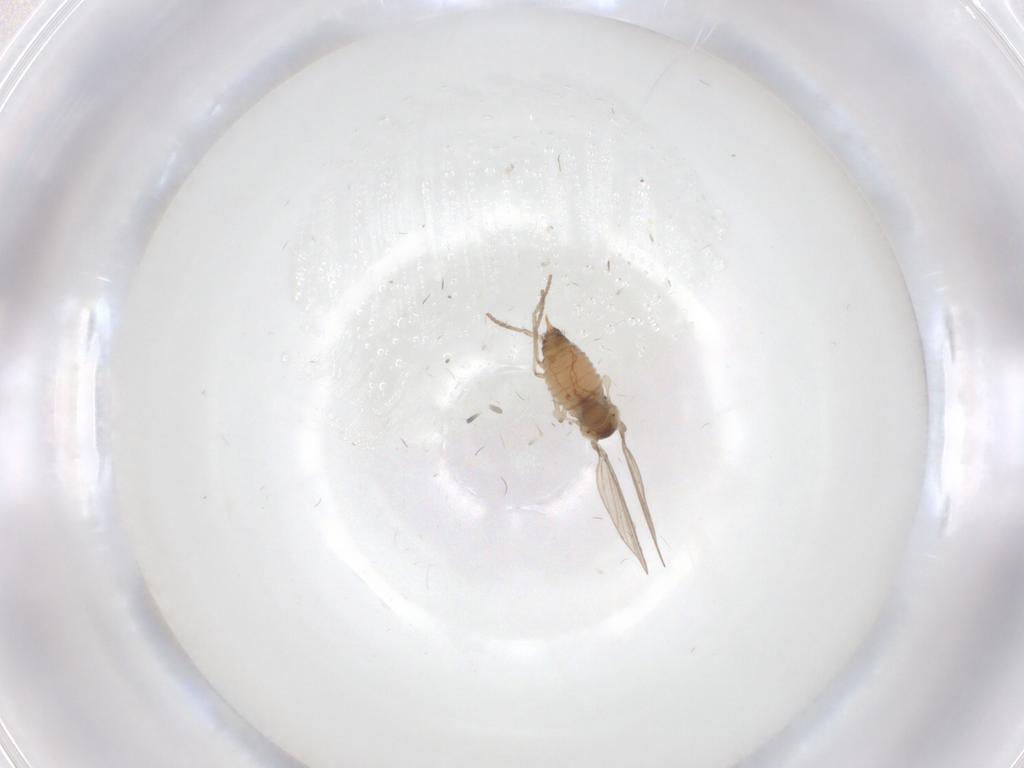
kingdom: Animalia
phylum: Arthropoda
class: Insecta
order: Diptera
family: Psychodidae
